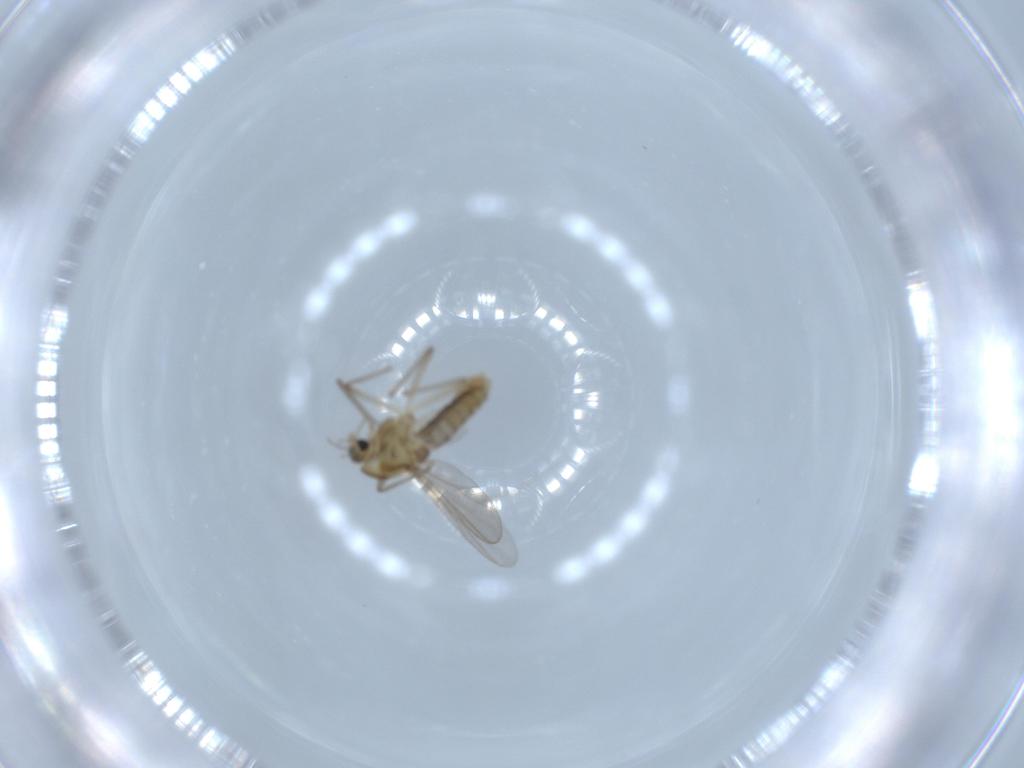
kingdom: Animalia
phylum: Arthropoda
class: Insecta
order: Diptera
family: Chironomidae
